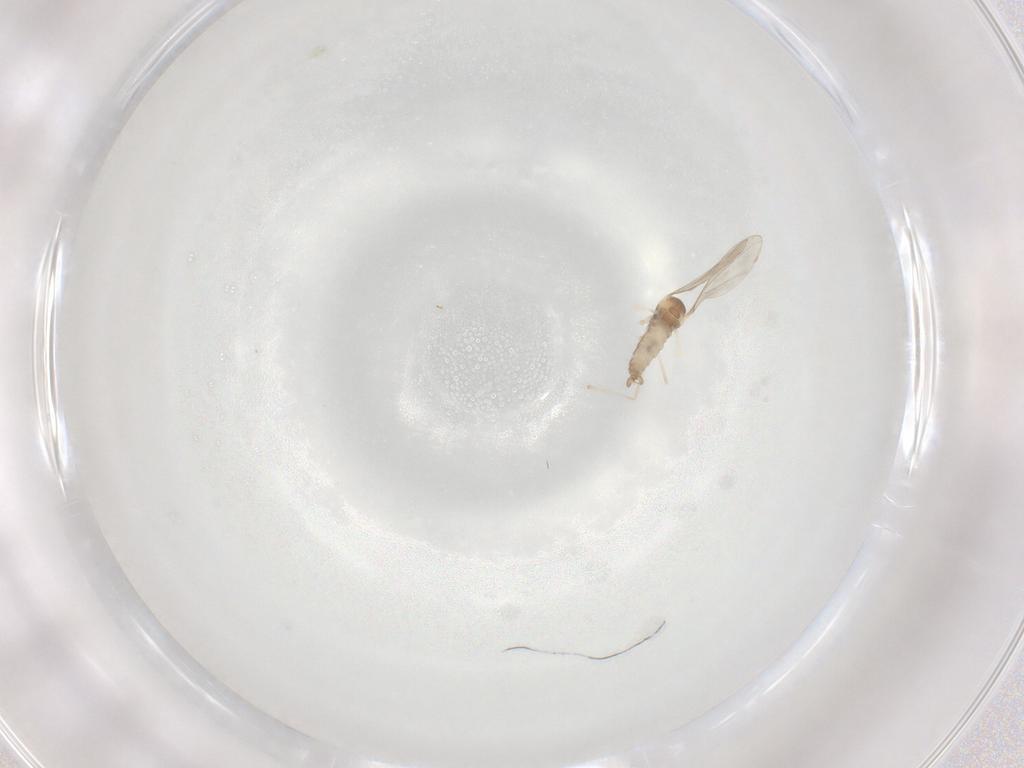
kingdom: Animalia
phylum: Arthropoda
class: Insecta
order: Diptera
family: Cecidomyiidae
